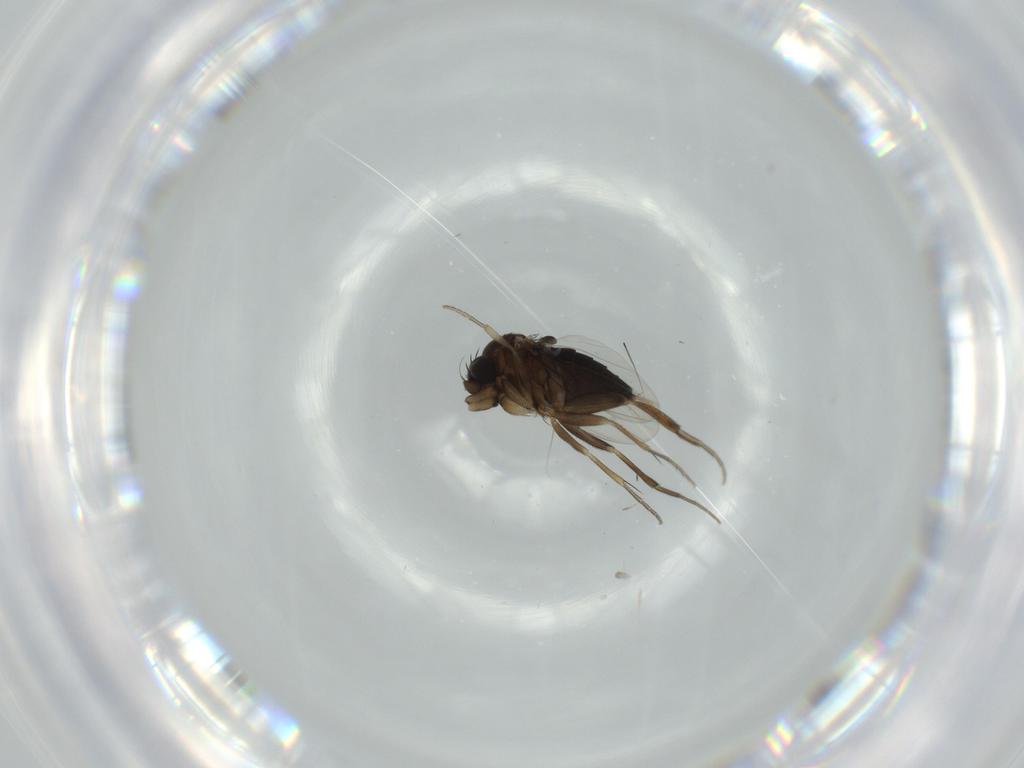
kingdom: Animalia
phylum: Arthropoda
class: Insecta
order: Diptera
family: Phoridae
